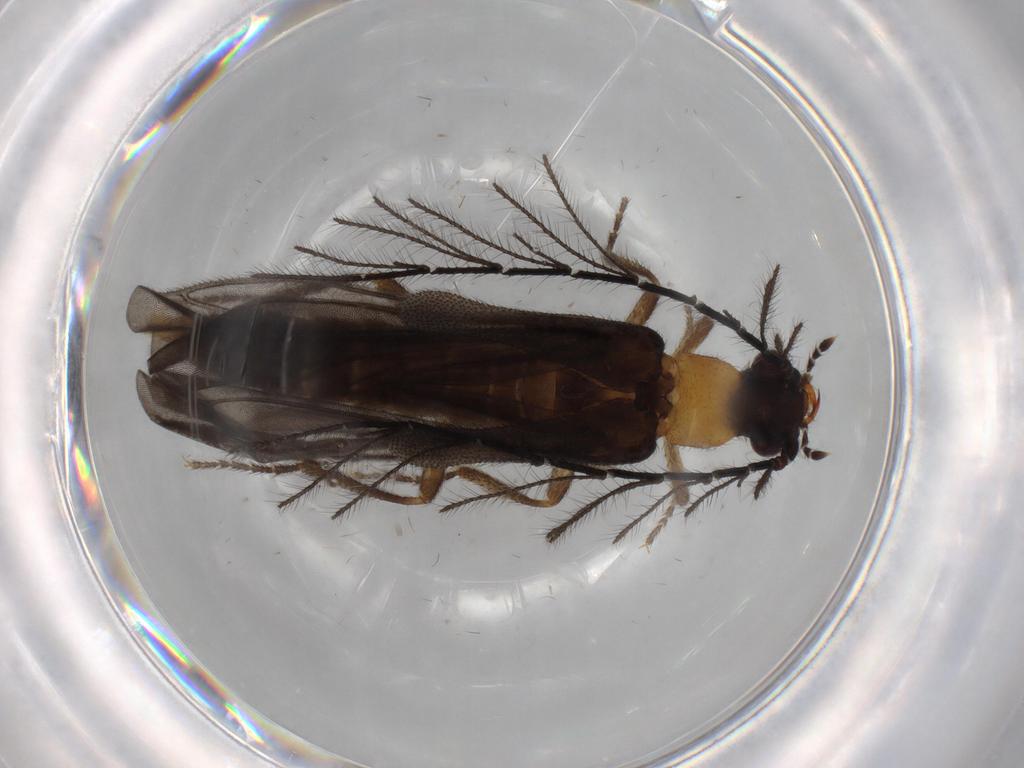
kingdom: Animalia
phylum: Arthropoda
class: Insecta
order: Coleoptera
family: Phengodidae
